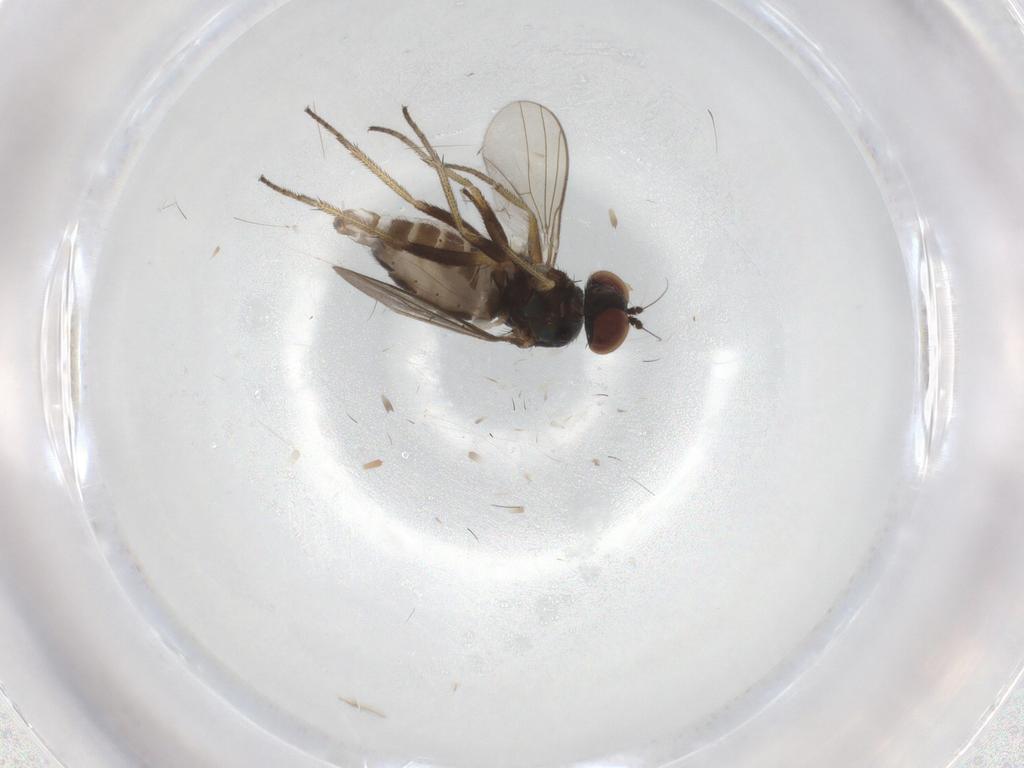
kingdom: Animalia
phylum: Arthropoda
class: Insecta
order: Diptera
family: Dolichopodidae
